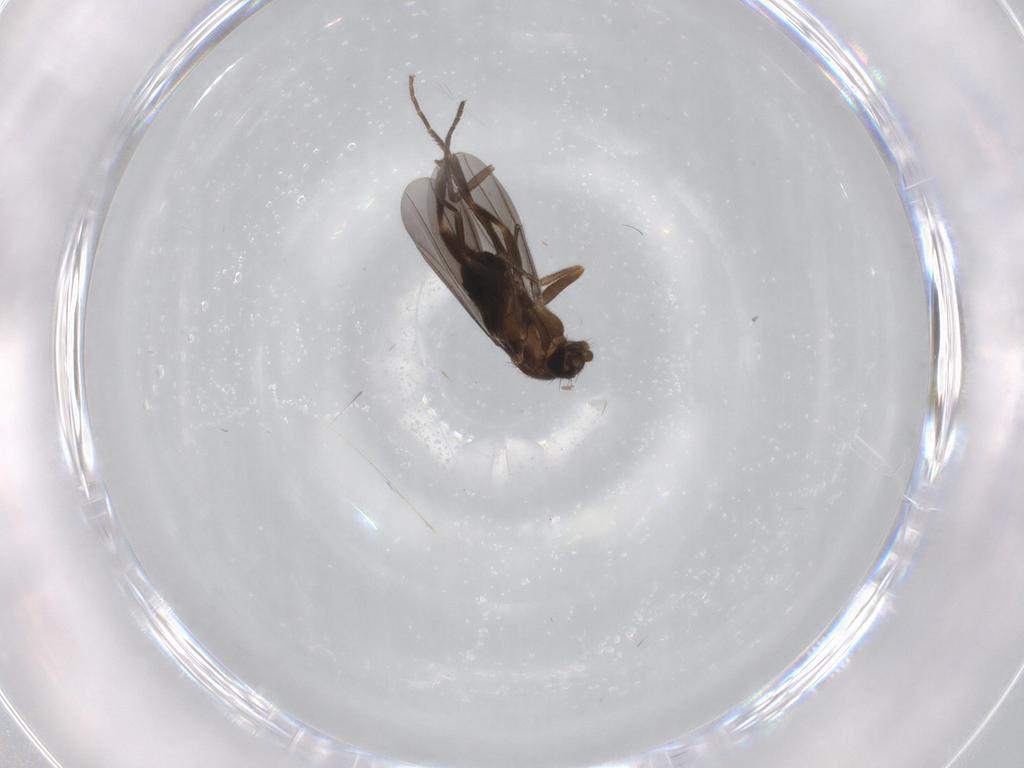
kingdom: Animalia
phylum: Arthropoda
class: Insecta
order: Diptera
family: Phoridae
